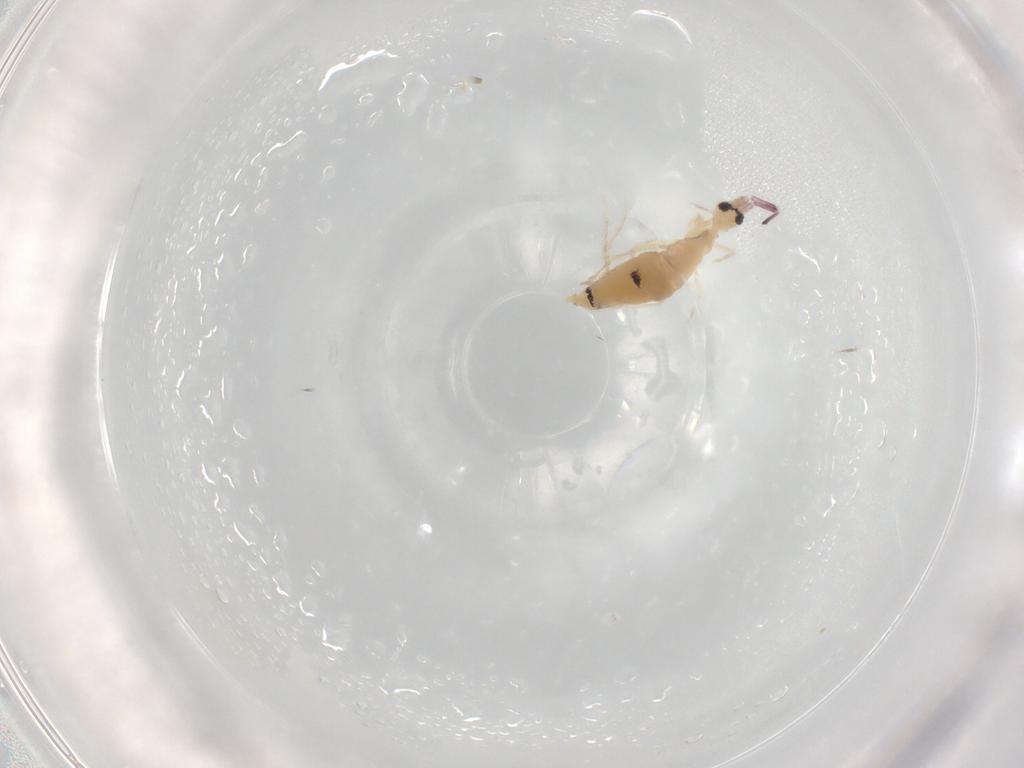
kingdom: Animalia
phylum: Arthropoda
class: Collembola
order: Entomobryomorpha
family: Entomobryidae
